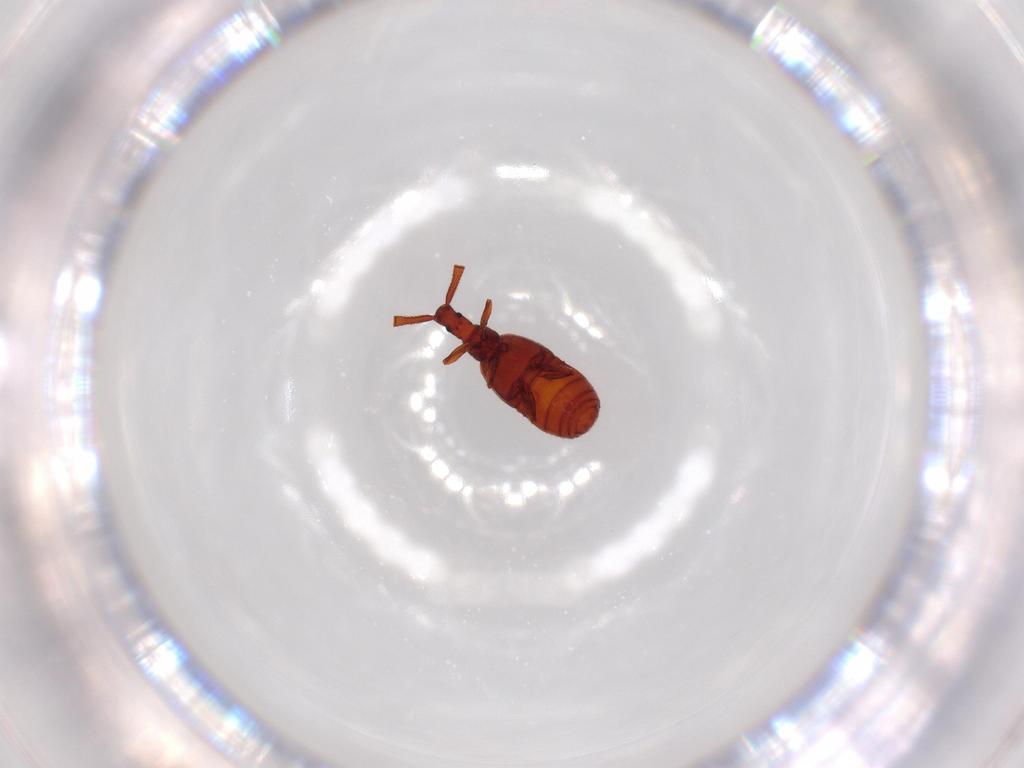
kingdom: Animalia
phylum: Arthropoda
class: Insecta
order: Coleoptera
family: Staphylinidae
